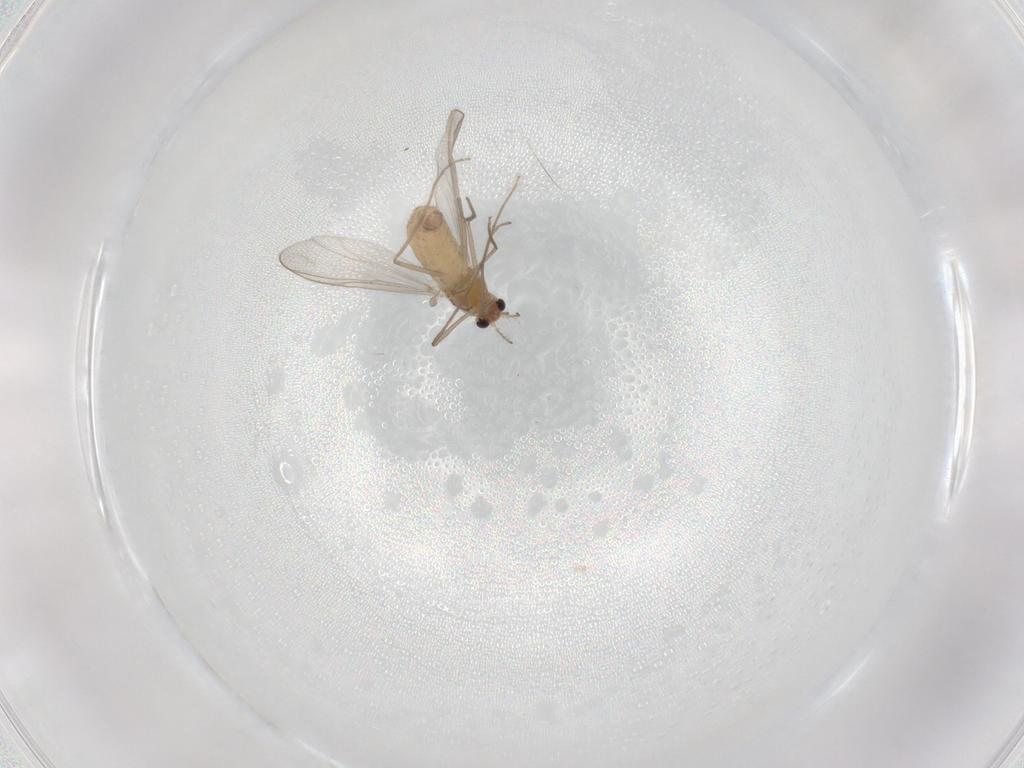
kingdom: Animalia
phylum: Arthropoda
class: Insecta
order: Diptera
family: Chironomidae
